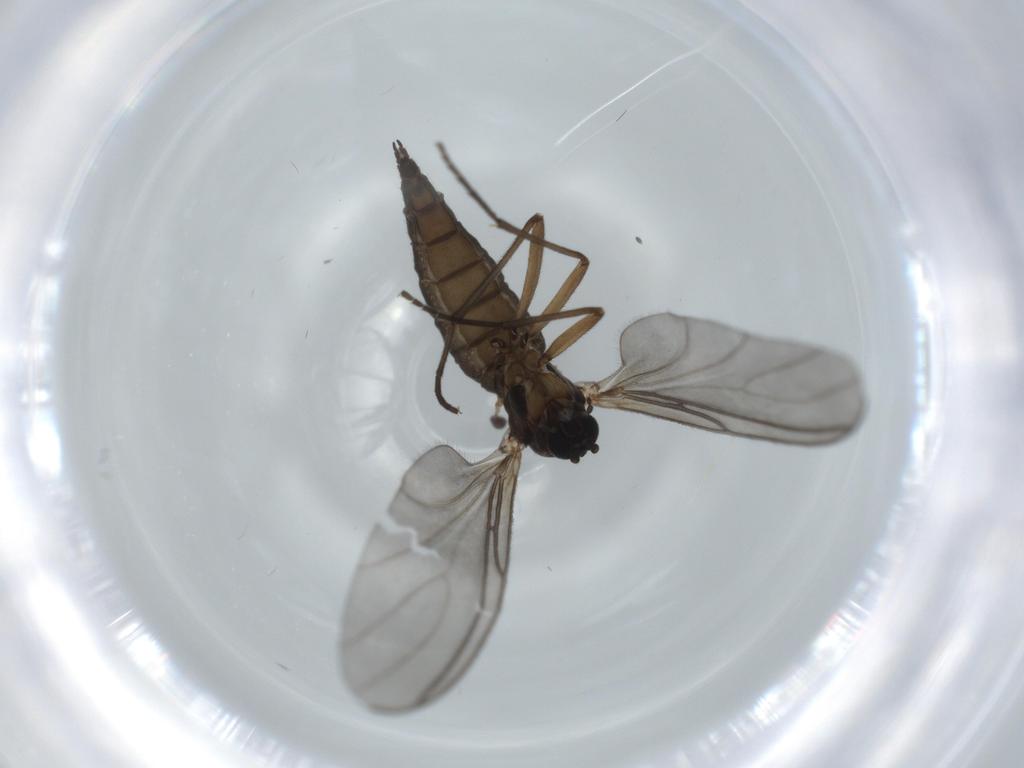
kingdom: Animalia
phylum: Arthropoda
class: Insecta
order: Diptera
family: Sciaridae
